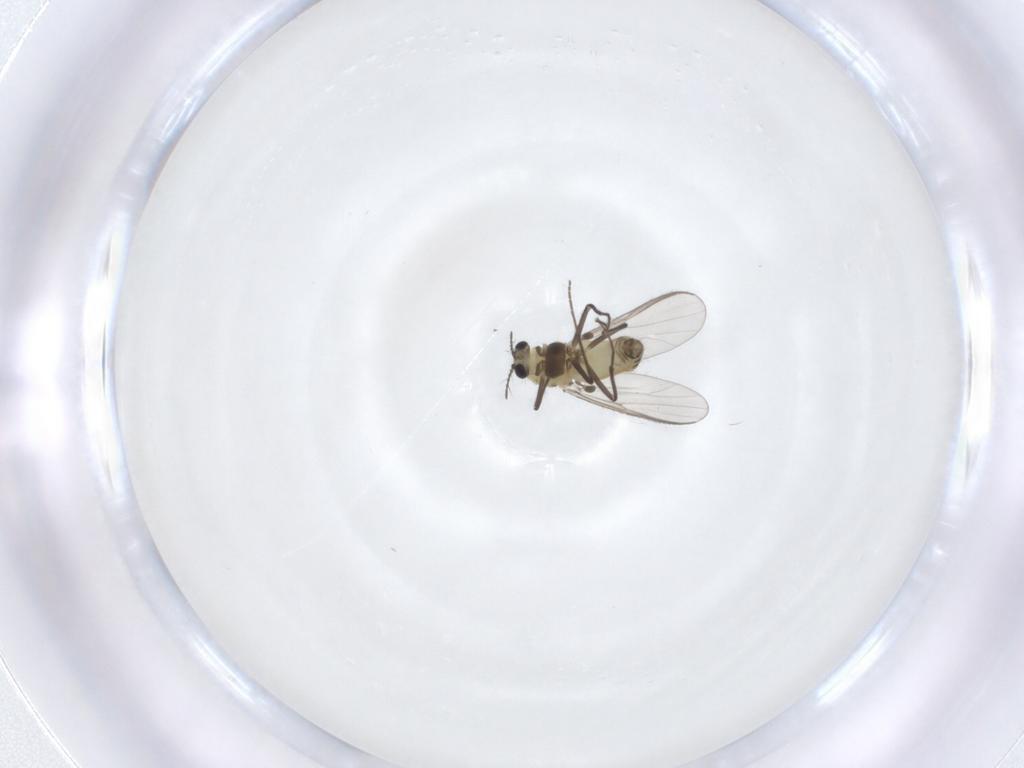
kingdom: Animalia
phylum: Arthropoda
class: Insecta
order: Diptera
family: Chironomidae
